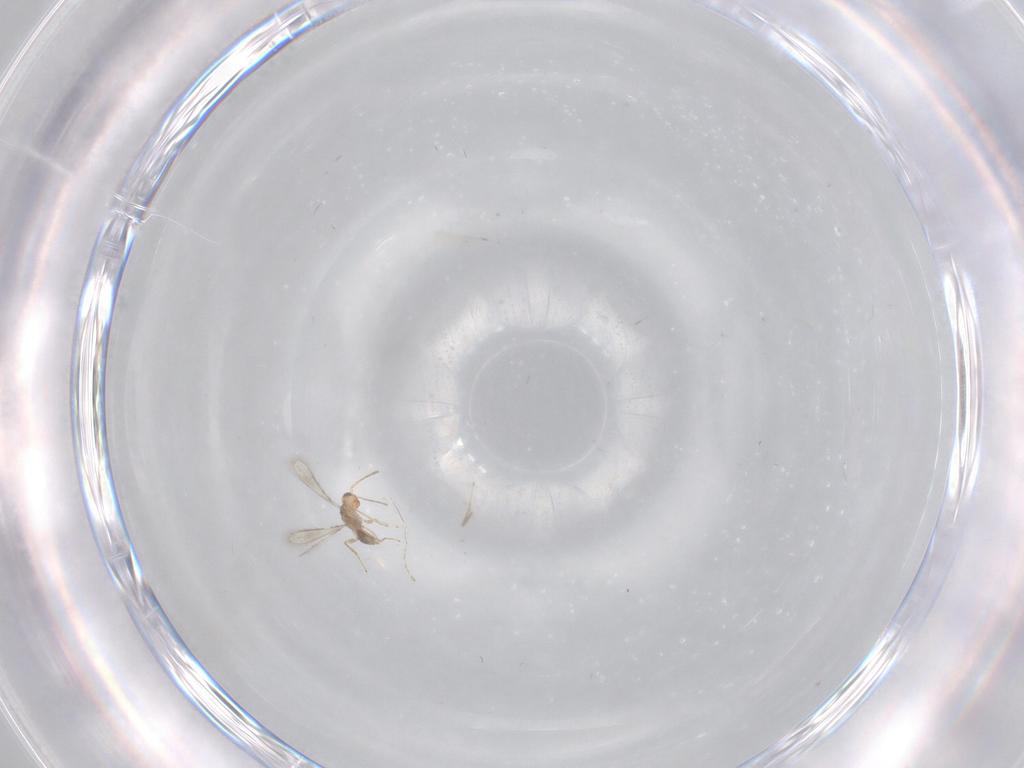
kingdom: Animalia
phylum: Arthropoda
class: Insecta
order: Diptera
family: Cecidomyiidae
